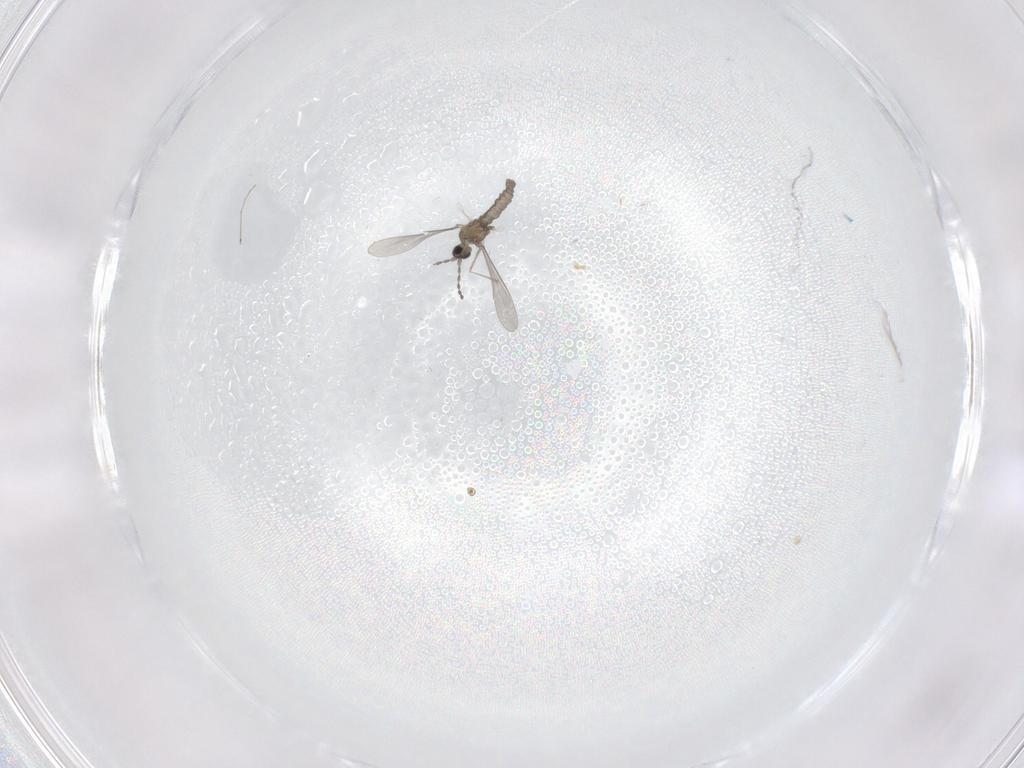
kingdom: Animalia
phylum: Arthropoda
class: Insecta
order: Diptera
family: Cecidomyiidae
